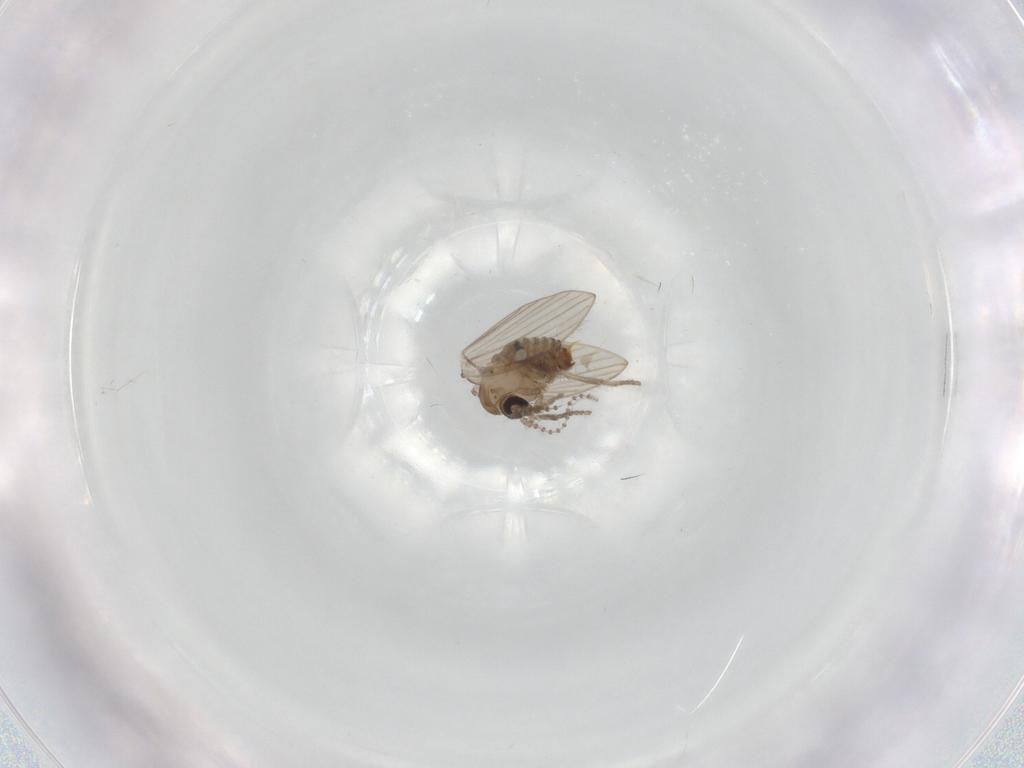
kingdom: Animalia
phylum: Arthropoda
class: Insecta
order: Diptera
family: Psychodidae
